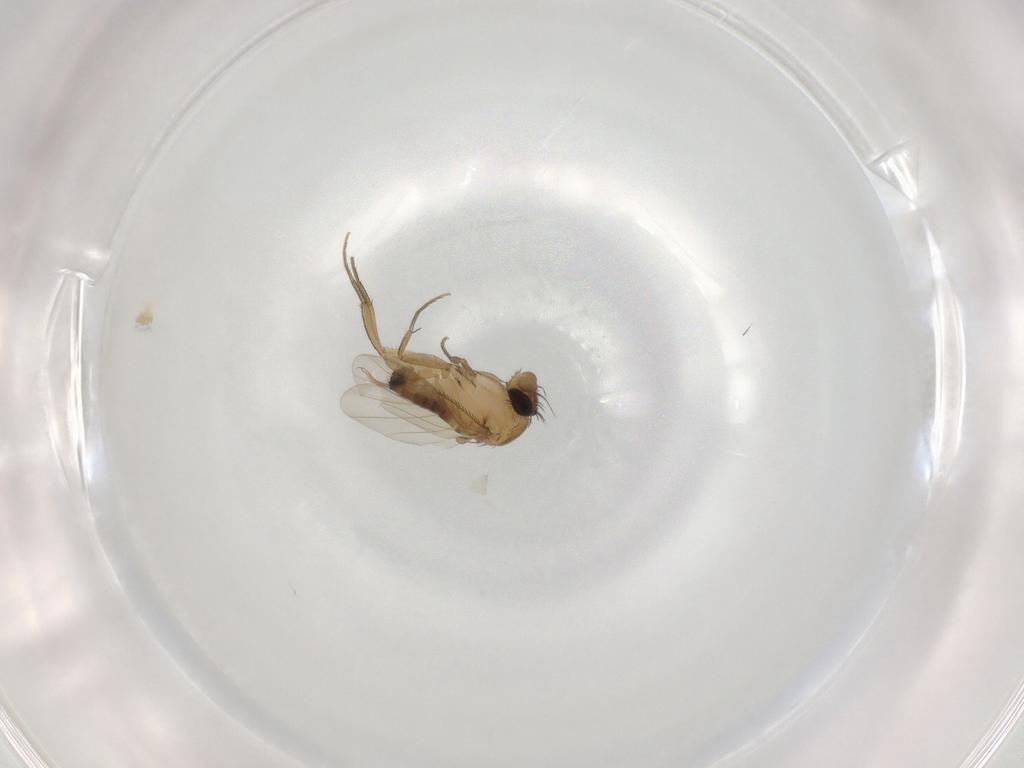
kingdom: Animalia
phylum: Arthropoda
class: Insecta
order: Diptera
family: Phoridae
